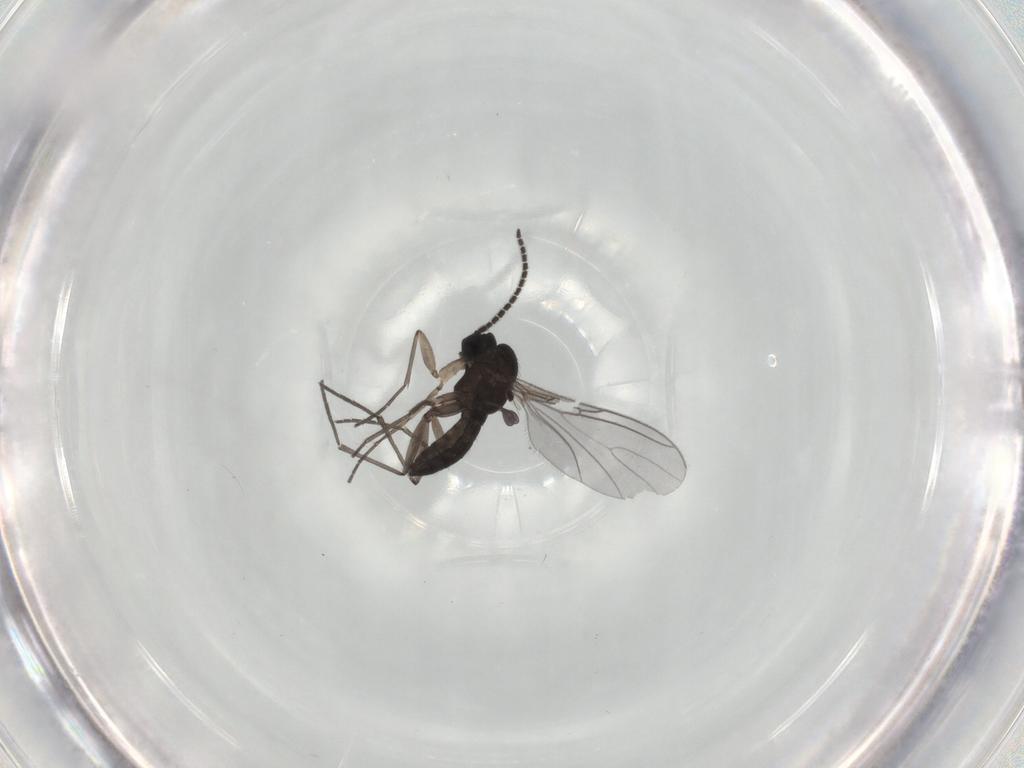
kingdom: Animalia
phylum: Arthropoda
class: Insecta
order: Diptera
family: Sciaridae
